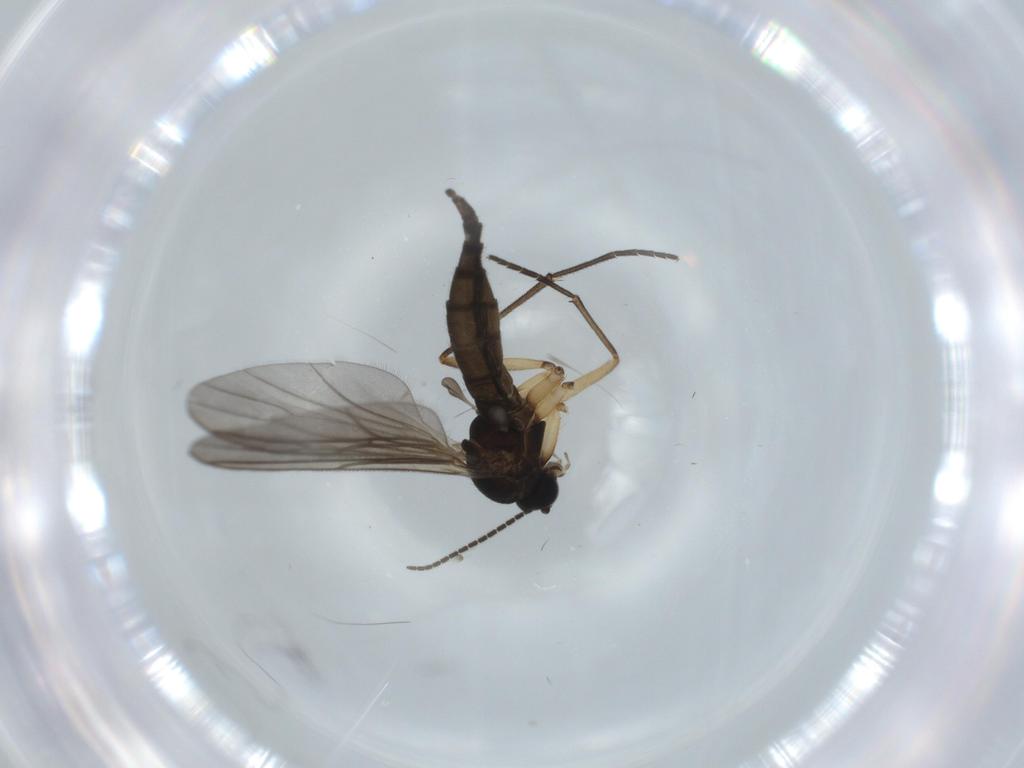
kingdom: Animalia
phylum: Arthropoda
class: Insecta
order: Diptera
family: Sciaridae
